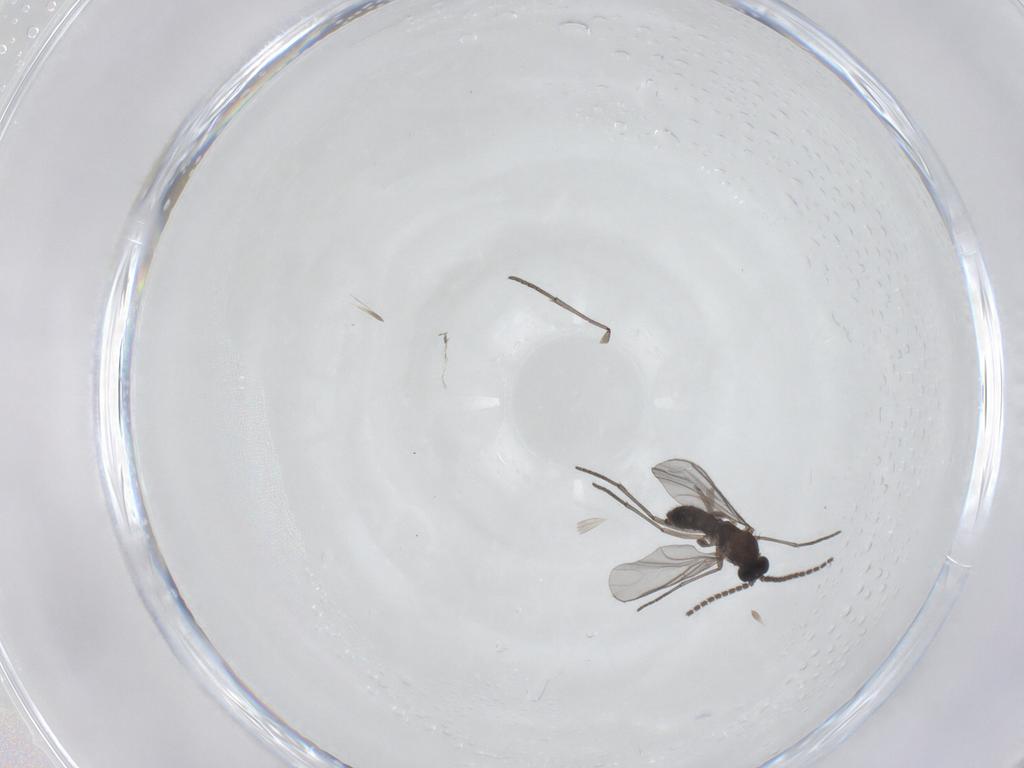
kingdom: Animalia
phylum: Arthropoda
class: Insecta
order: Diptera
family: Sciaridae
